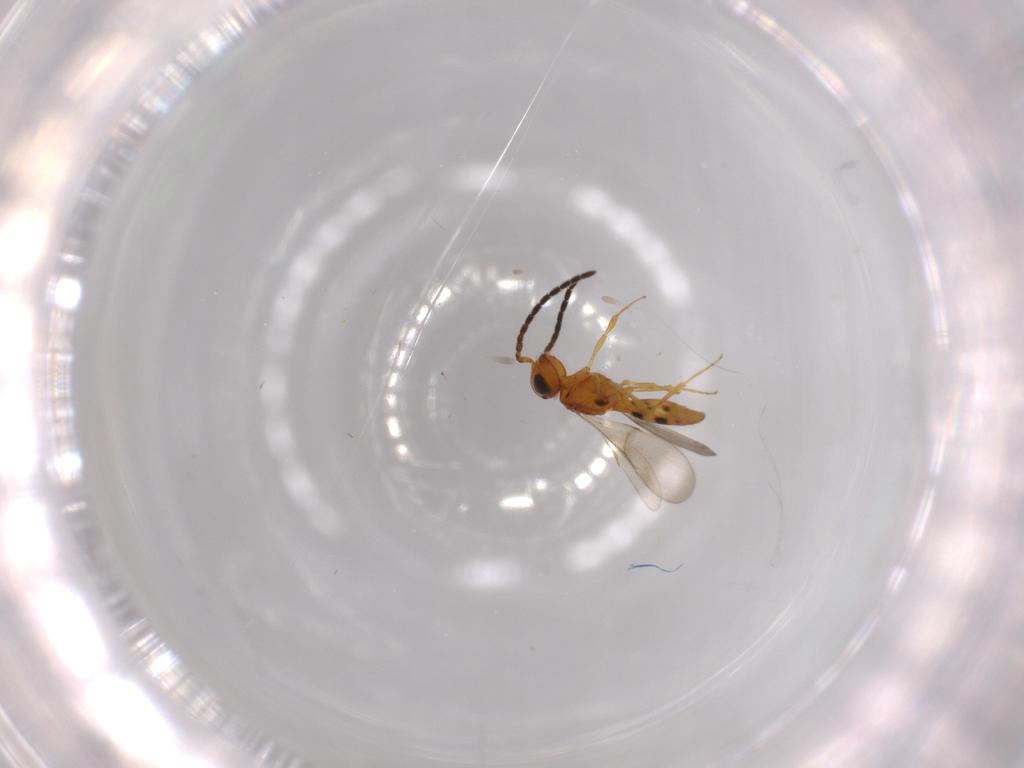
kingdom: Animalia
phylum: Arthropoda
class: Insecta
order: Hymenoptera
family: Scelionidae
